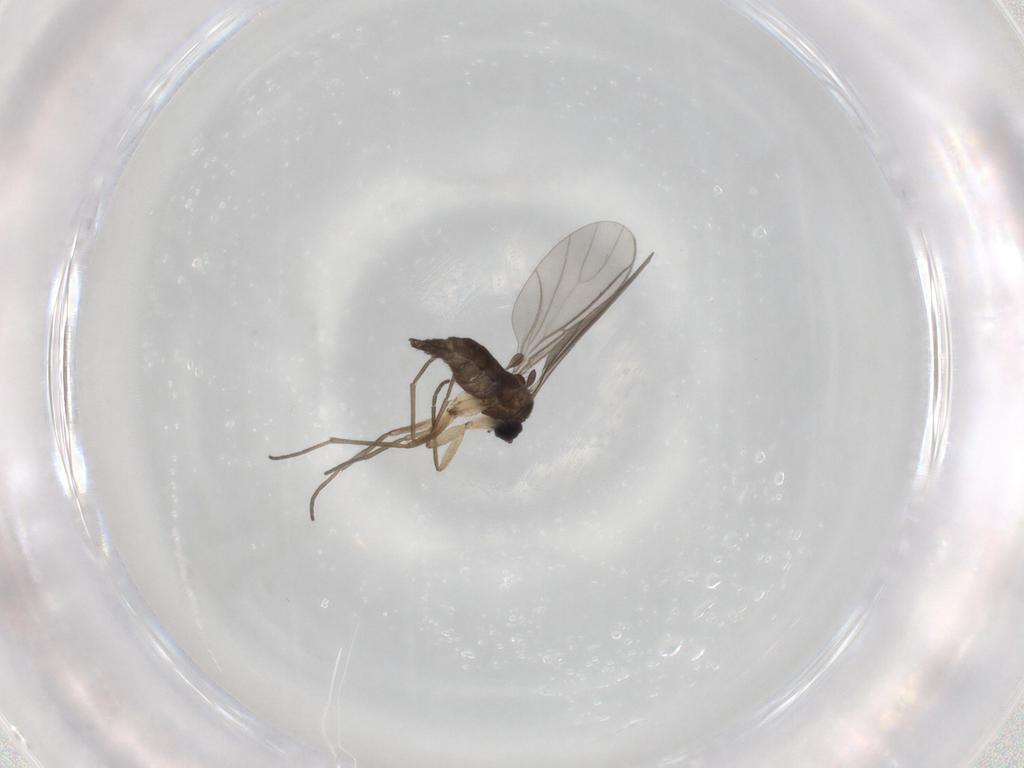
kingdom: Animalia
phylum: Arthropoda
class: Insecta
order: Diptera
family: Sciaridae
